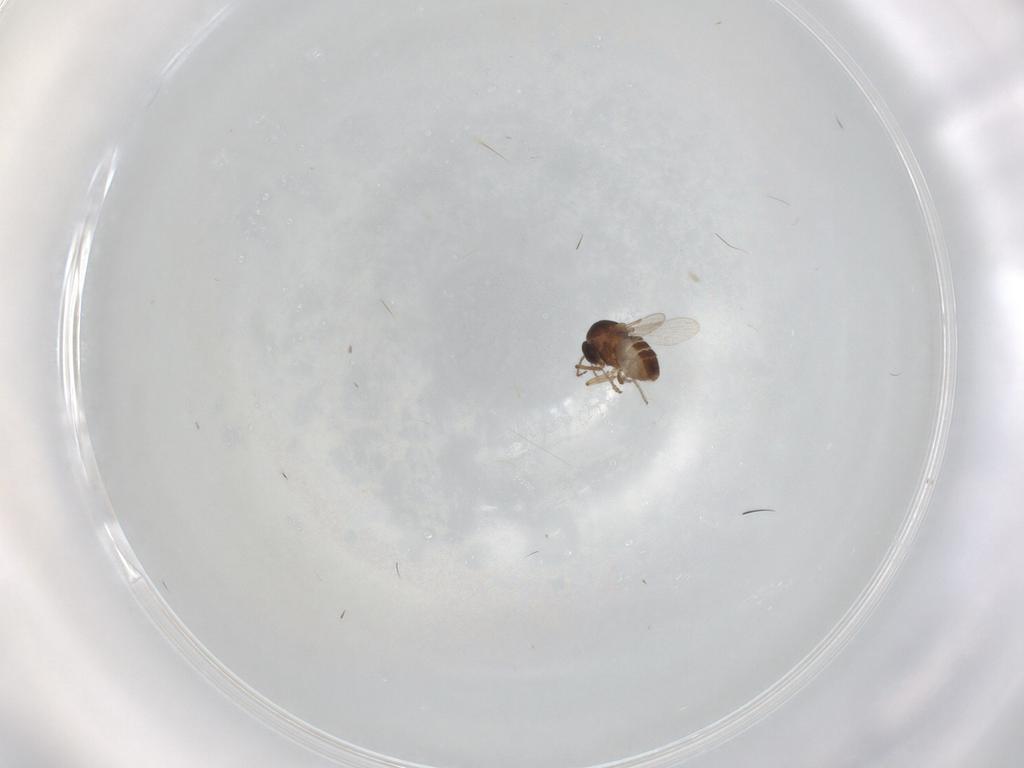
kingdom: Animalia
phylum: Arthropoda
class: Insecta
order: Diptera
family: Ceratopogonidae
